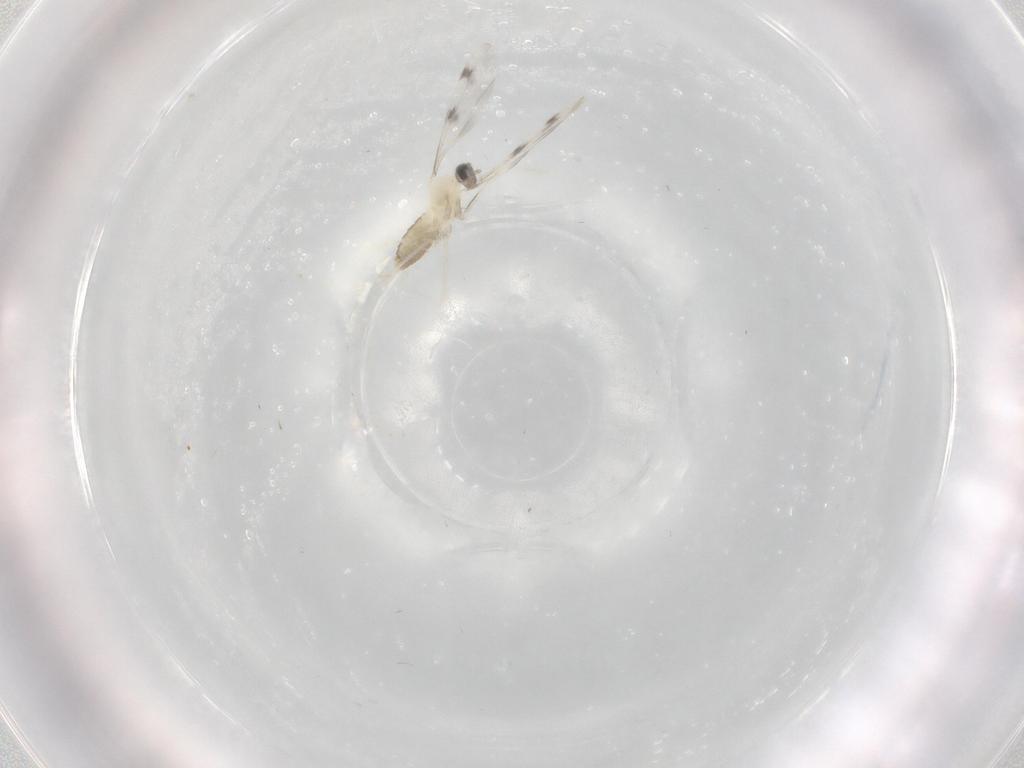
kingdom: Animalia
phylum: Arthropoda
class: Insecta
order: Diptera
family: Cecidomyiidae
